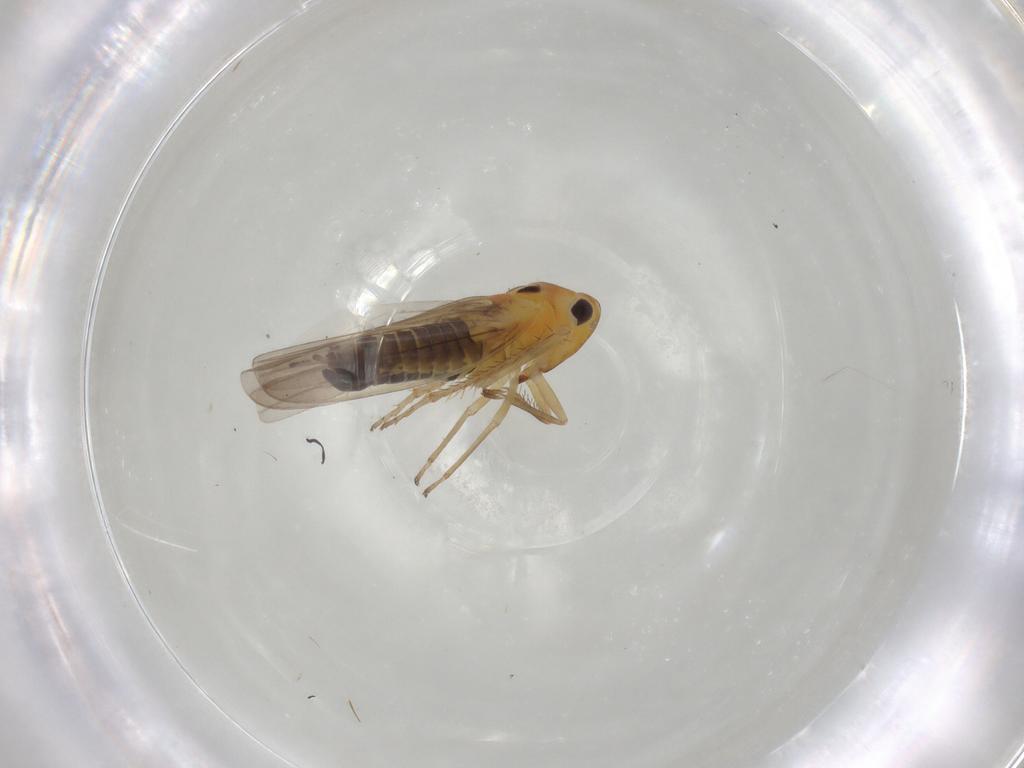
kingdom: Animalia
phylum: Arthropoda
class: Insecta
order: Hemiptera
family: Cicadellidae
